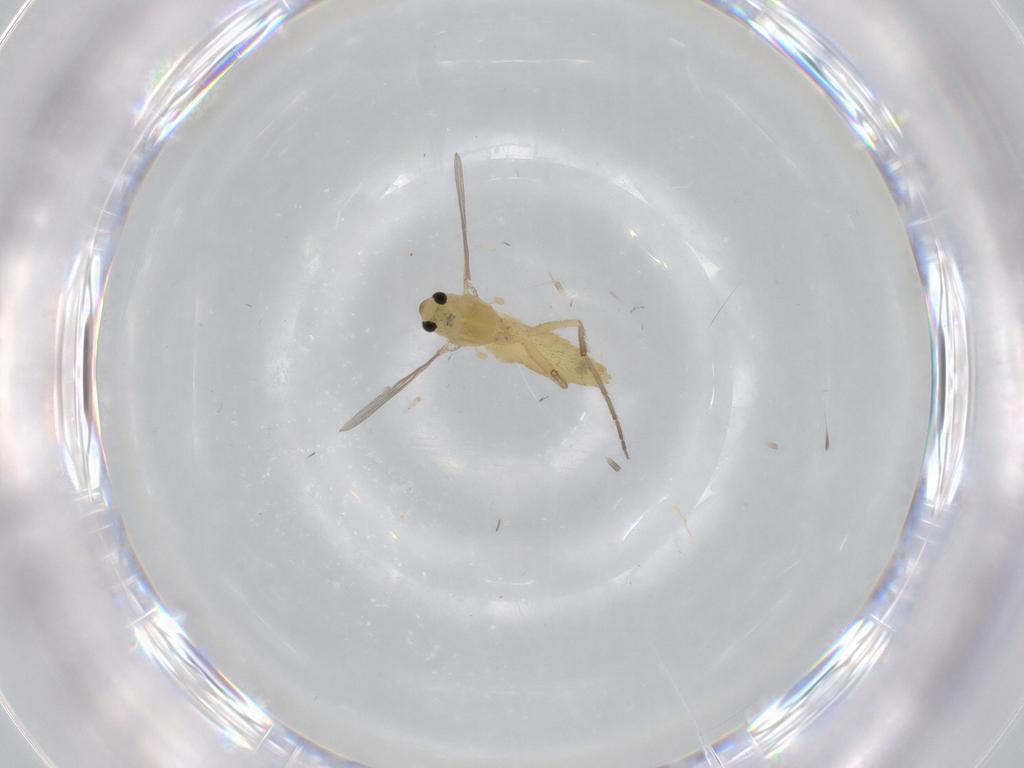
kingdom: Animalia
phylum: Arthropoda
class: Insecta
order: Diptera
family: Chironomidae
